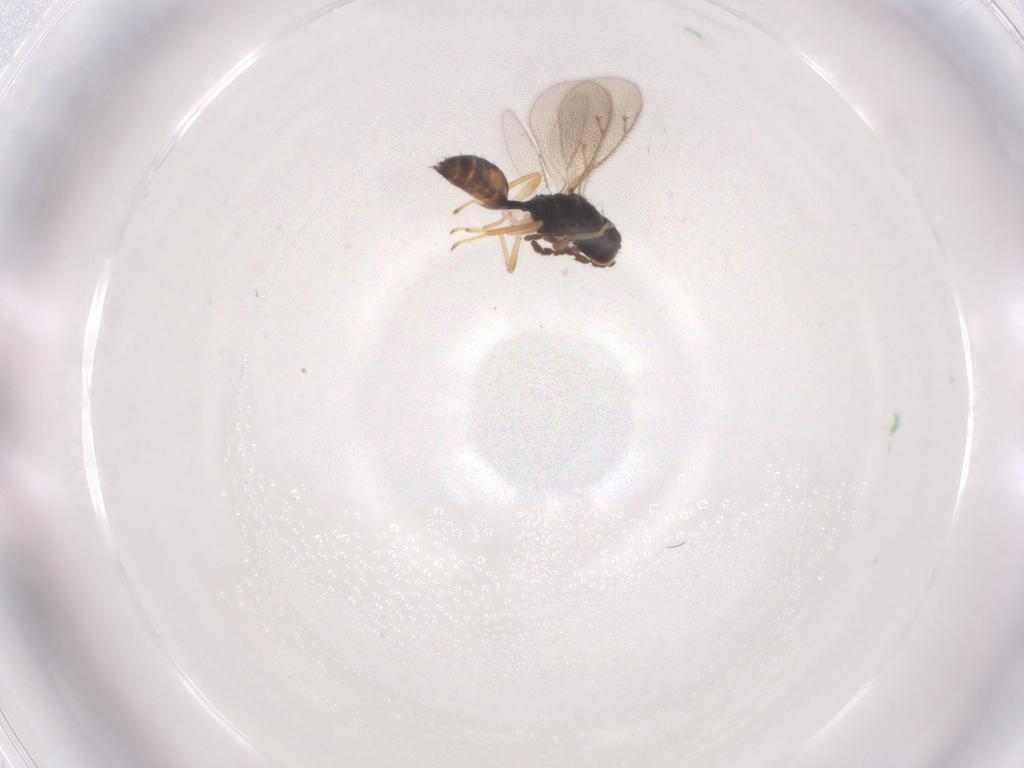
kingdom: Animalia
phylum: Arthropoda
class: Insecta
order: Hymenoptera
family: Eulophidae
